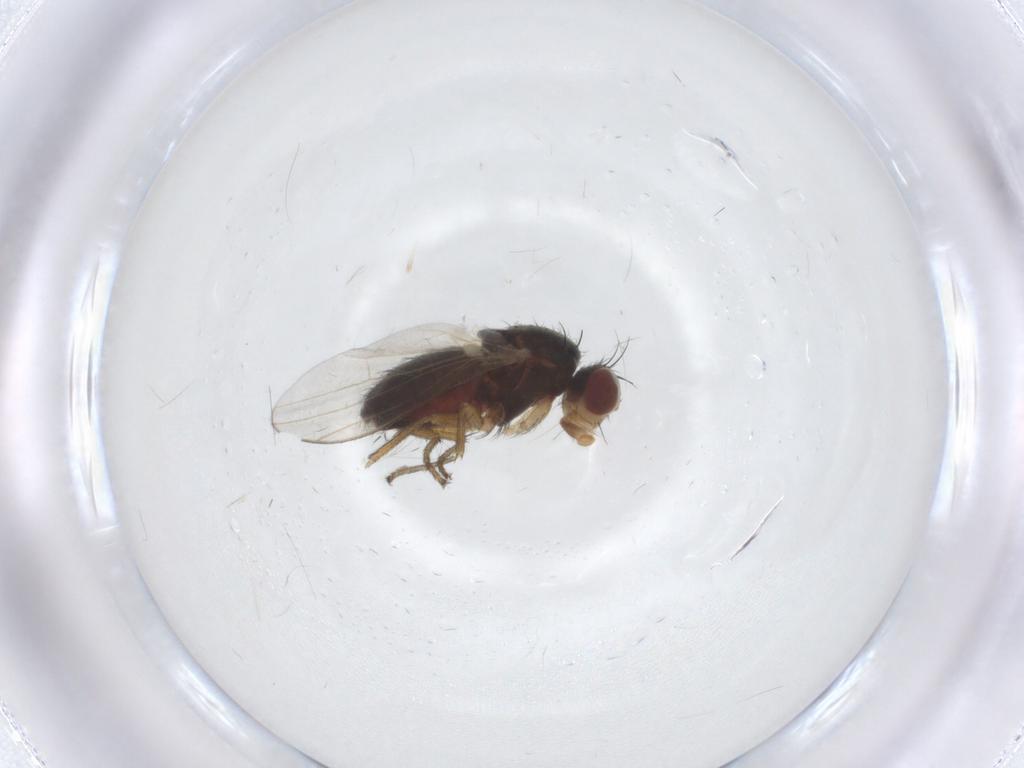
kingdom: Animalia
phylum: Arthropoda
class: Insecta
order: Diptera
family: Heleomyzidae
